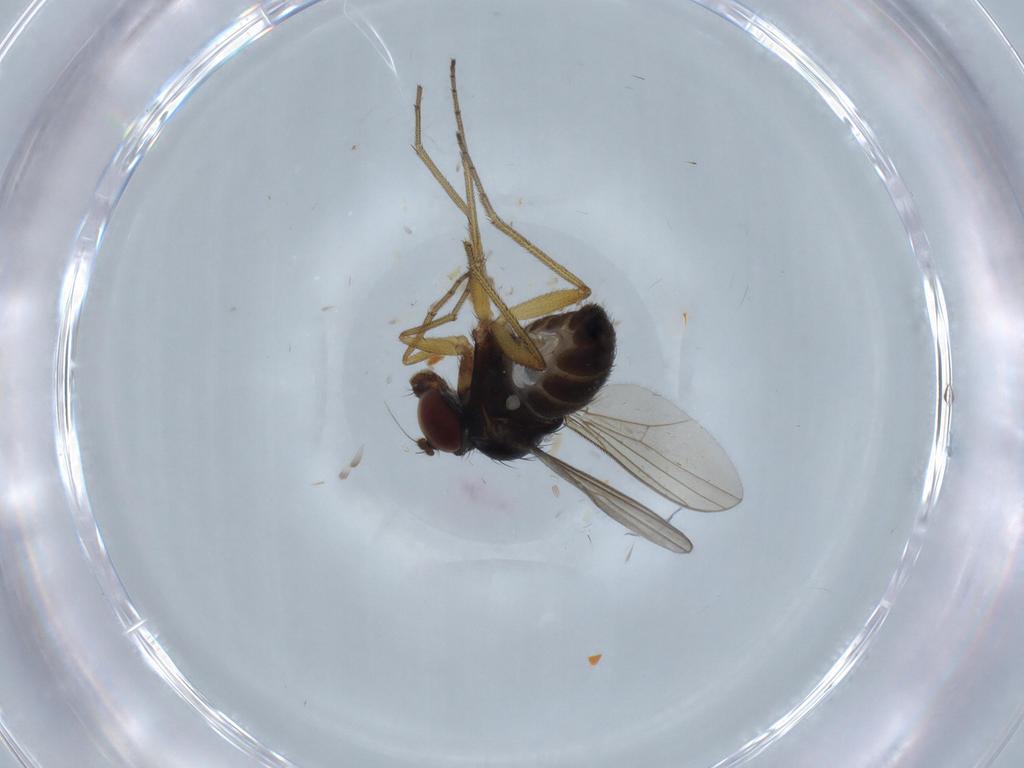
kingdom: Animalia
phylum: Arthropoda
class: Insecta
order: Diptera
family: Dolichopodidae
